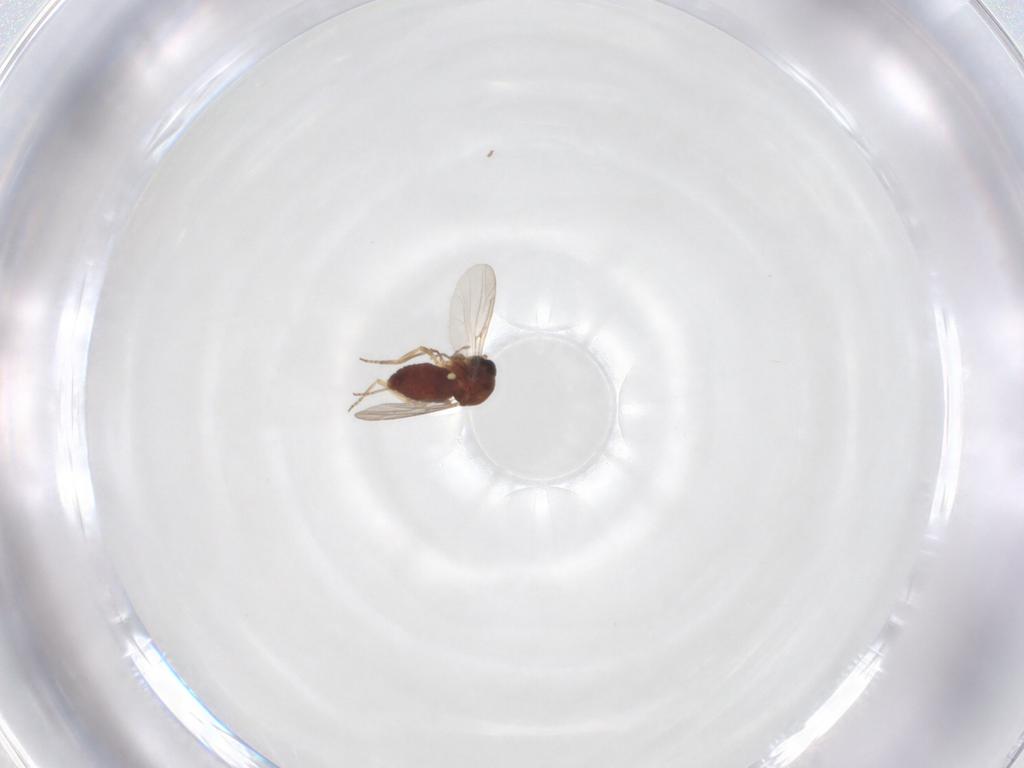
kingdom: Animalia
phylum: Arthropoda
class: Insecta
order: Diptera
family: Ceratopogonidae
